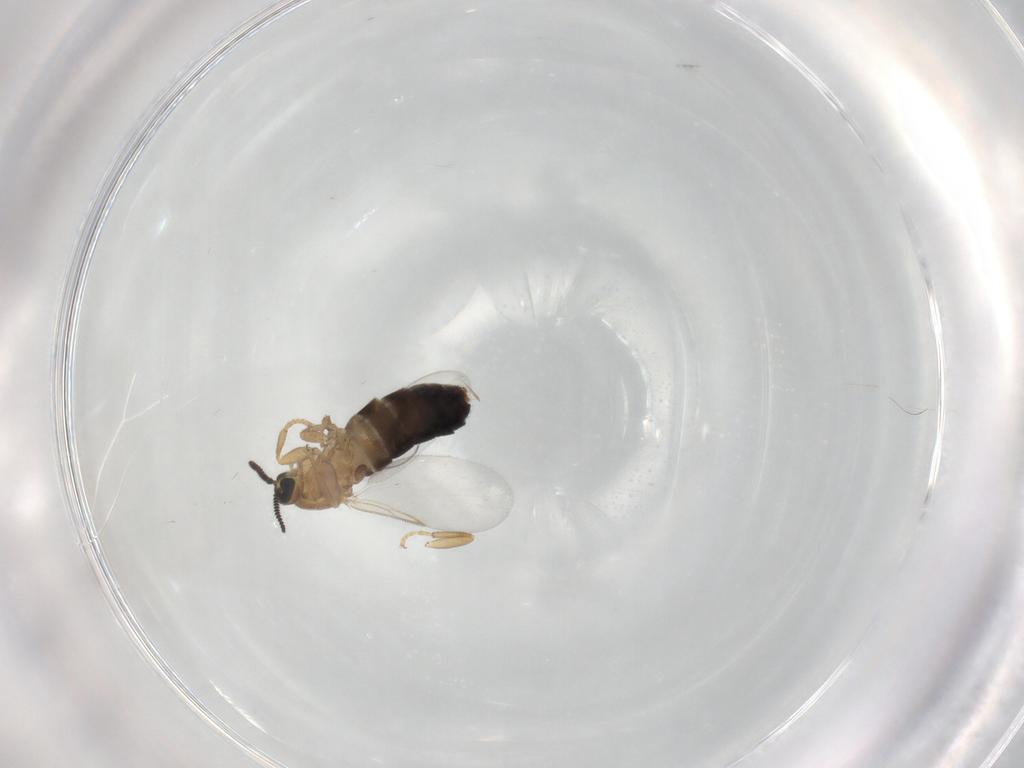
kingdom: Animalia
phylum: Arthropoda
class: Insecta
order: Diptera
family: Scatopsidae
